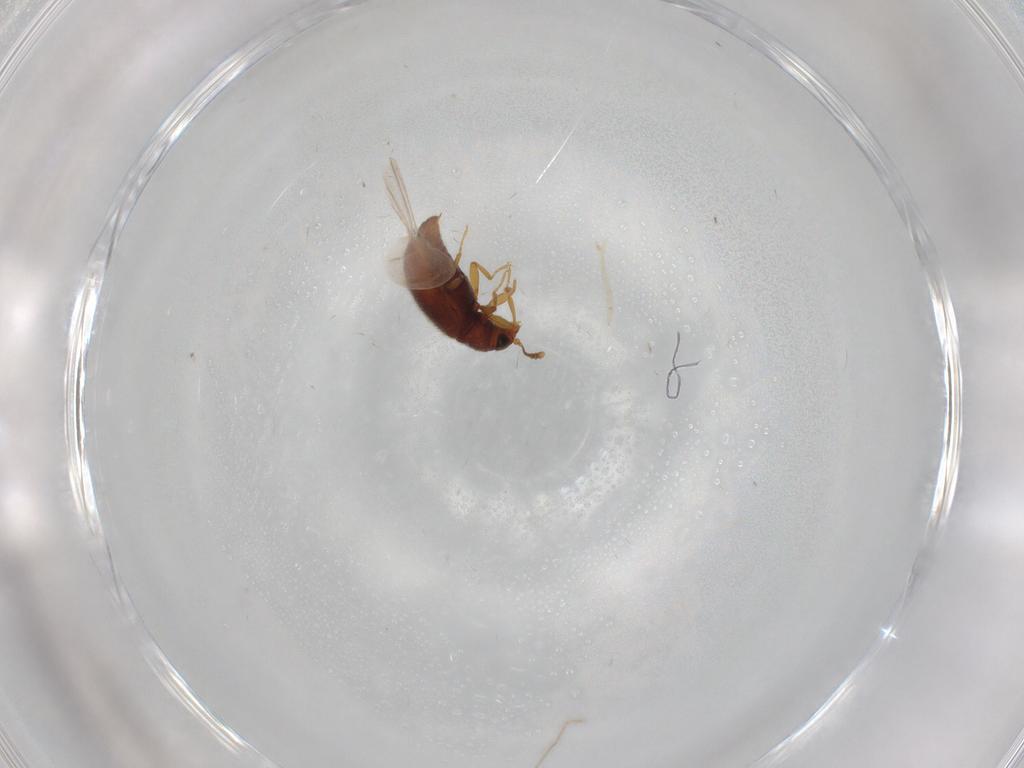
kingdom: Animalia
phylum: Arthropoda
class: Insecta
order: Coleoptera
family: Latridiidae
